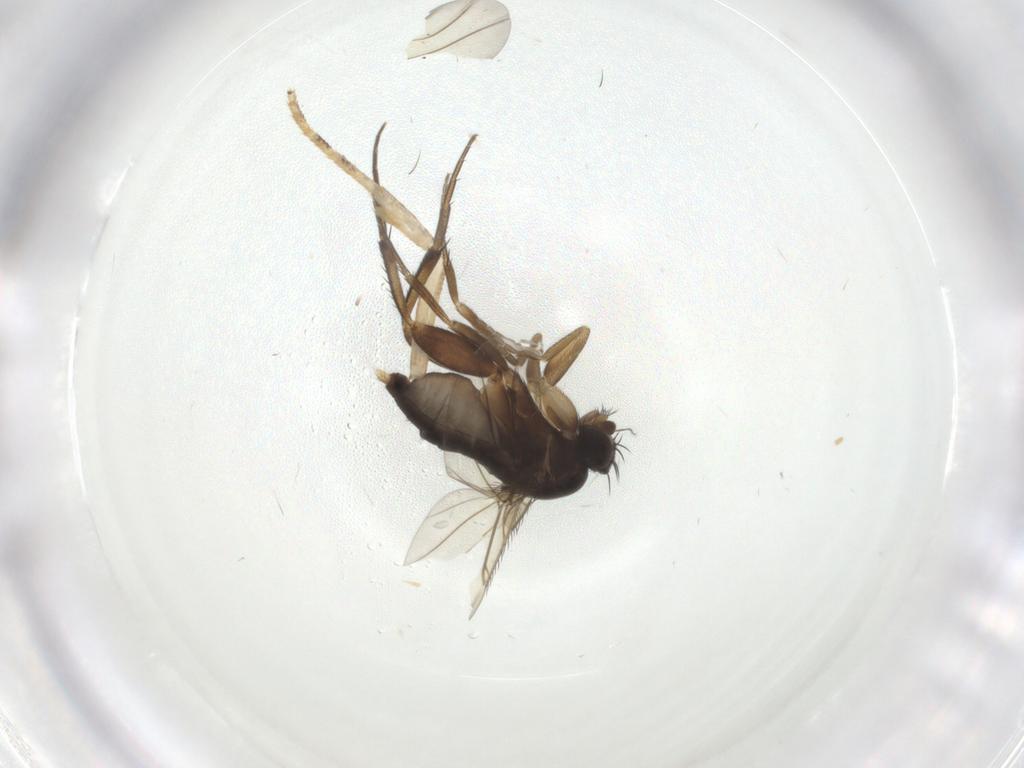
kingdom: Animalia
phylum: Arthropoda
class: Insecta
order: Diptera
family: Phoridae
